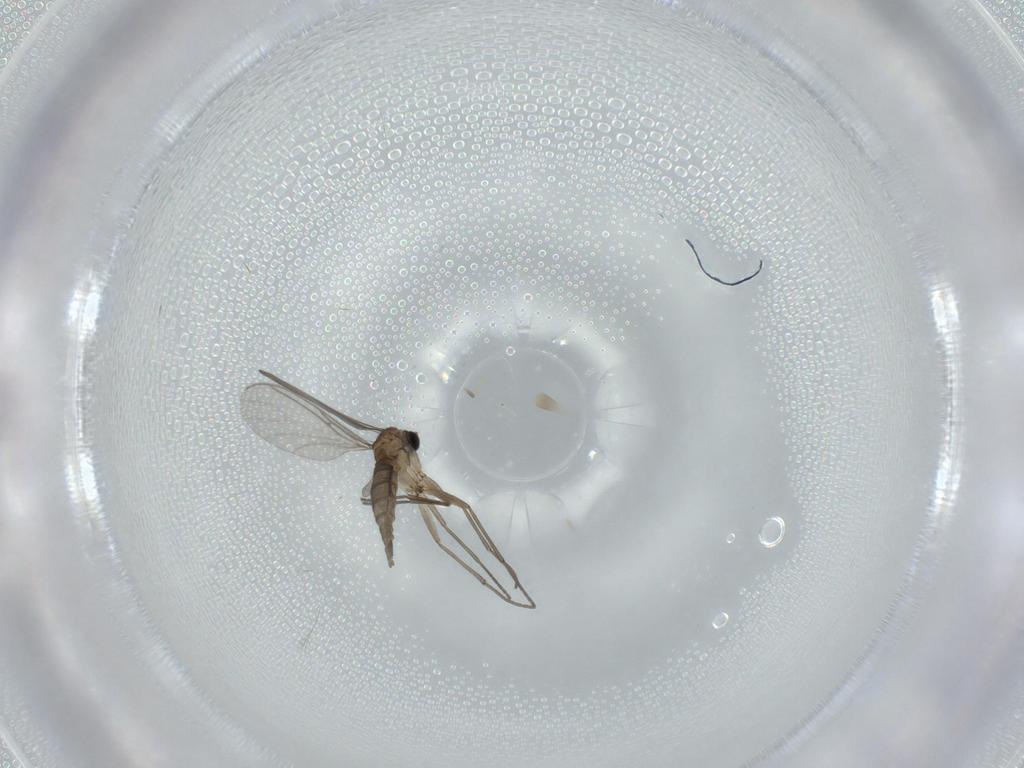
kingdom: Animalia
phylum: Arthropoda
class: Insecta
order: Diptera
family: Sciaridae
